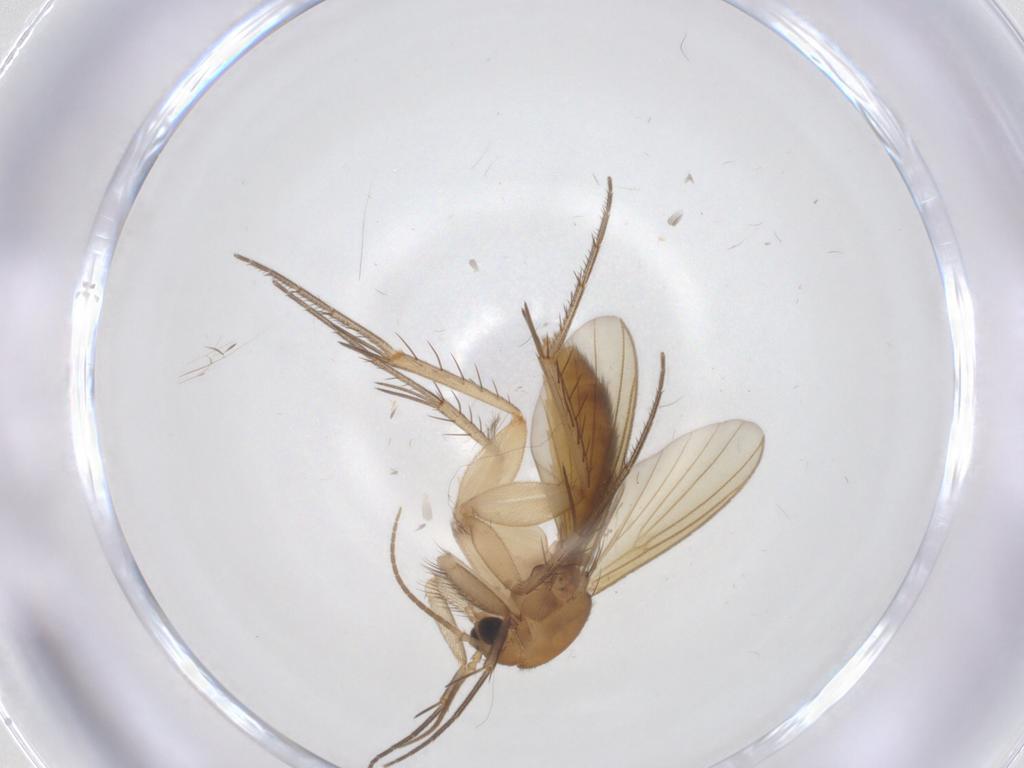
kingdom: Animalia
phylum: Arthropoda
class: Insecta
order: Diptera
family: Mycetophilidae
